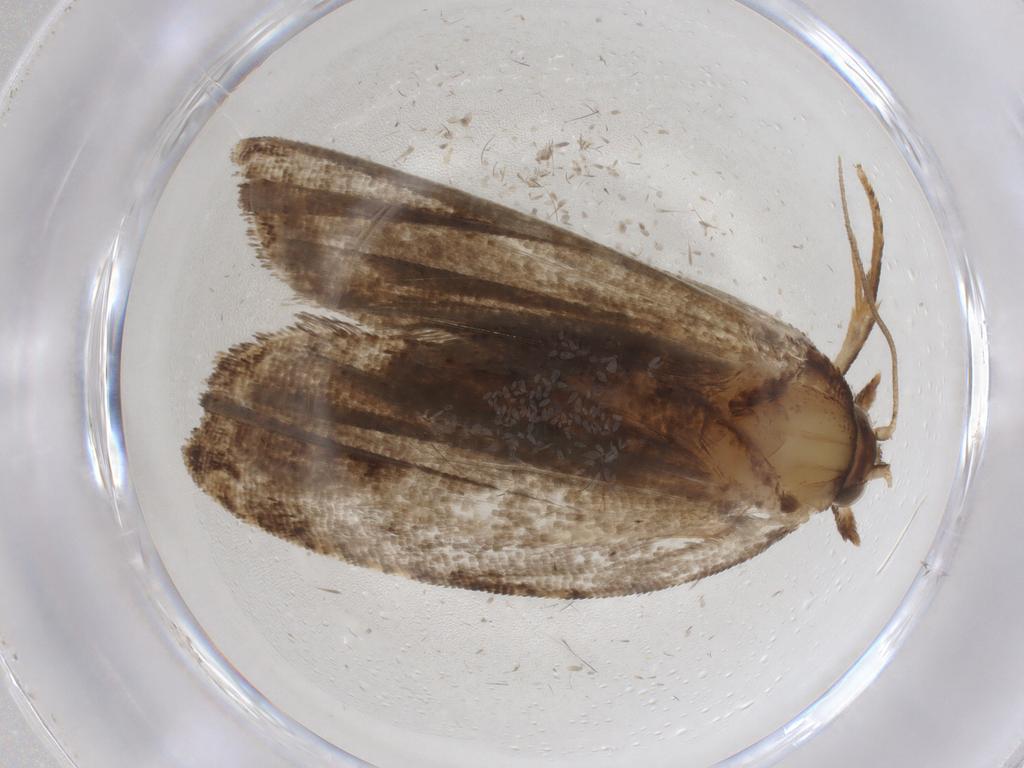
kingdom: Animalia
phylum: Arthropoda
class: Insecta
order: Lepidoptera
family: Tortricidae
